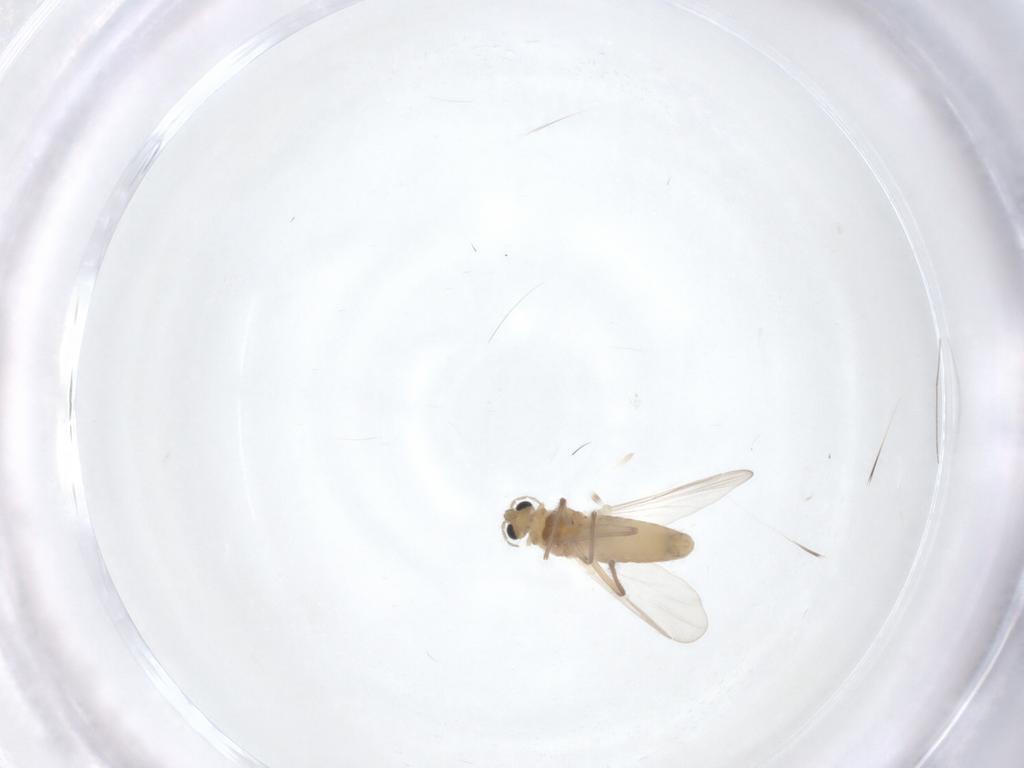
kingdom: Animalia
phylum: Arthropoda
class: Insecta
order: Diptera
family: Chironomidae
